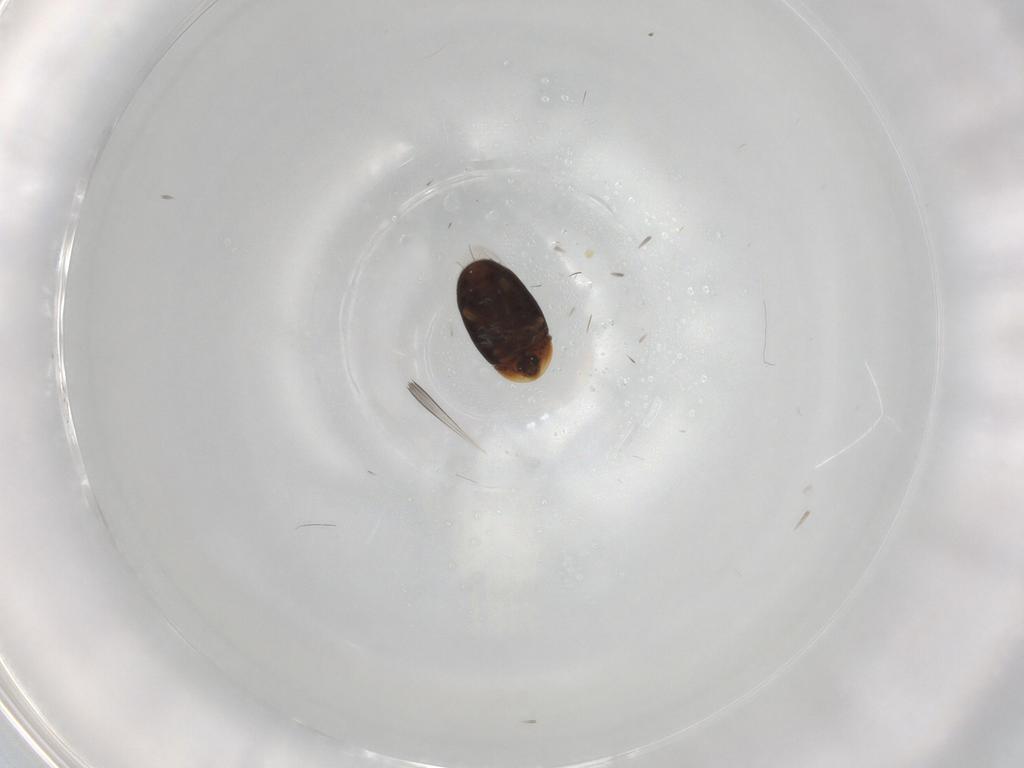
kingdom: Animalia
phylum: Arthropoda
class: Insecta
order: Coleoptera
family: Corylophidae
